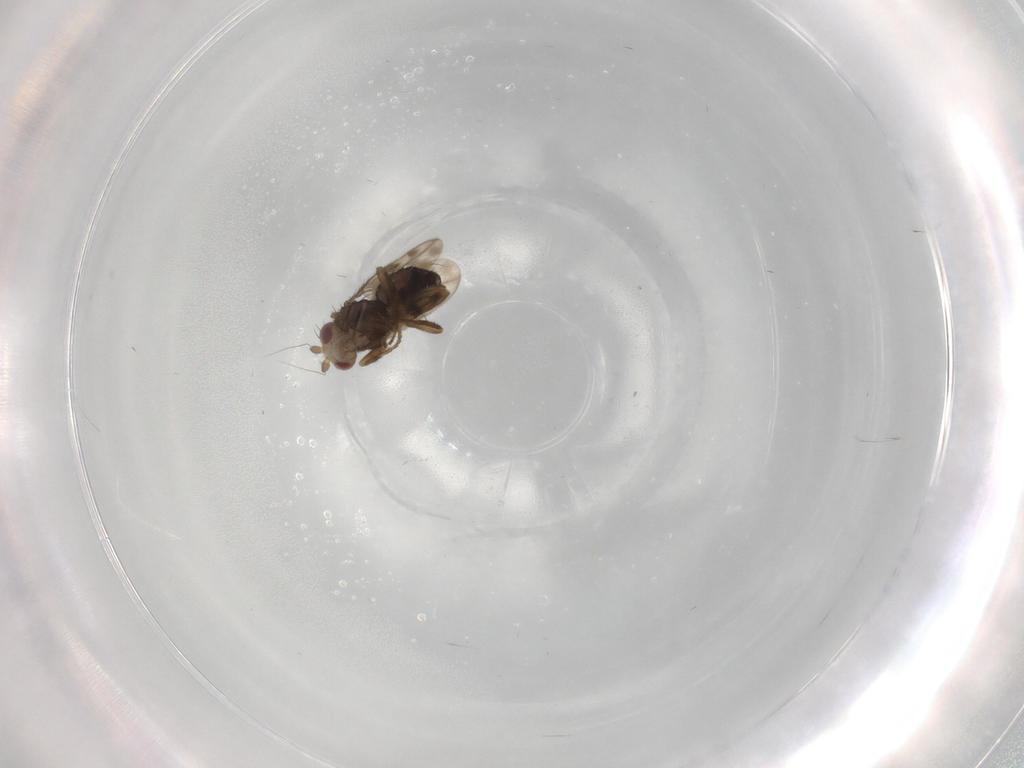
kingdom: Animalia
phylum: Arthropoda
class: Insecta
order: Diptera
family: Sphaeroceridae
